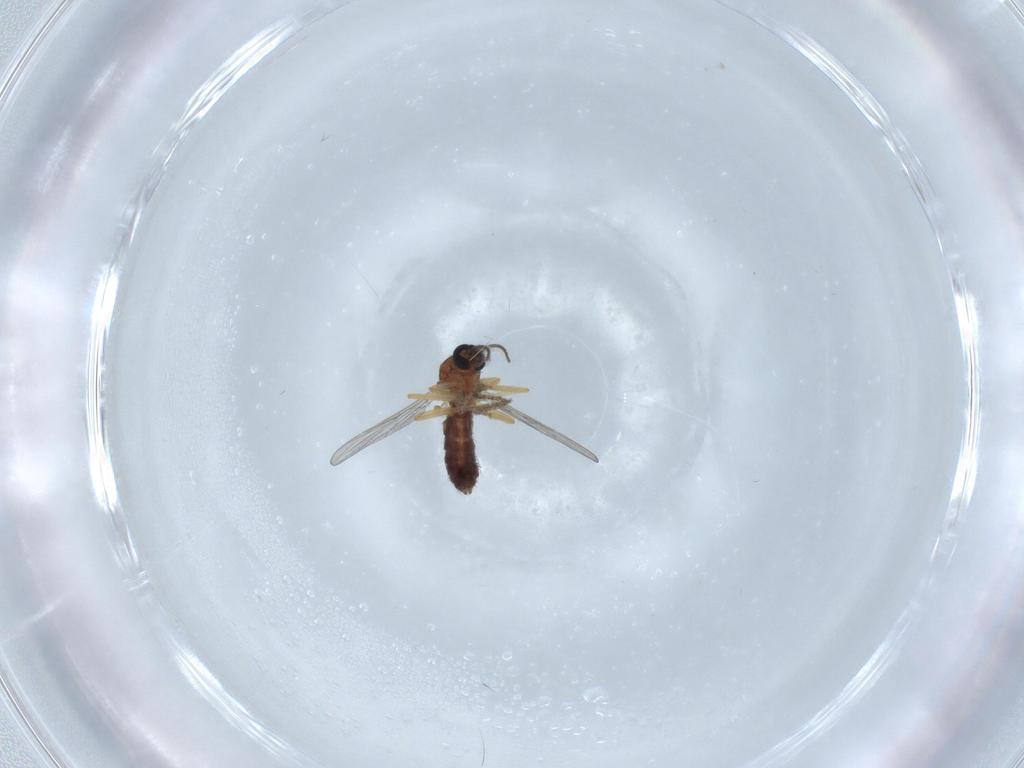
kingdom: Animalia
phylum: Arthropoda
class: Insecta
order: Diptera
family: Ceratopogonidae
